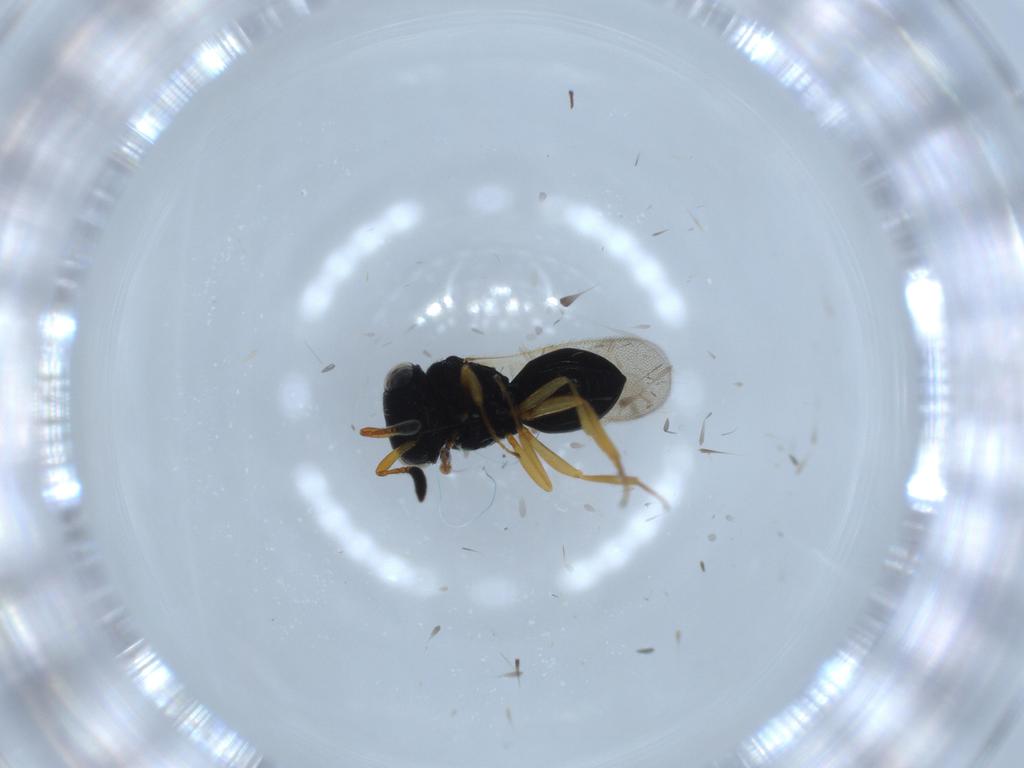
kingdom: Animalia
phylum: Arthropoda
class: Insecta
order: Hymenoptera
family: Scelionidae
